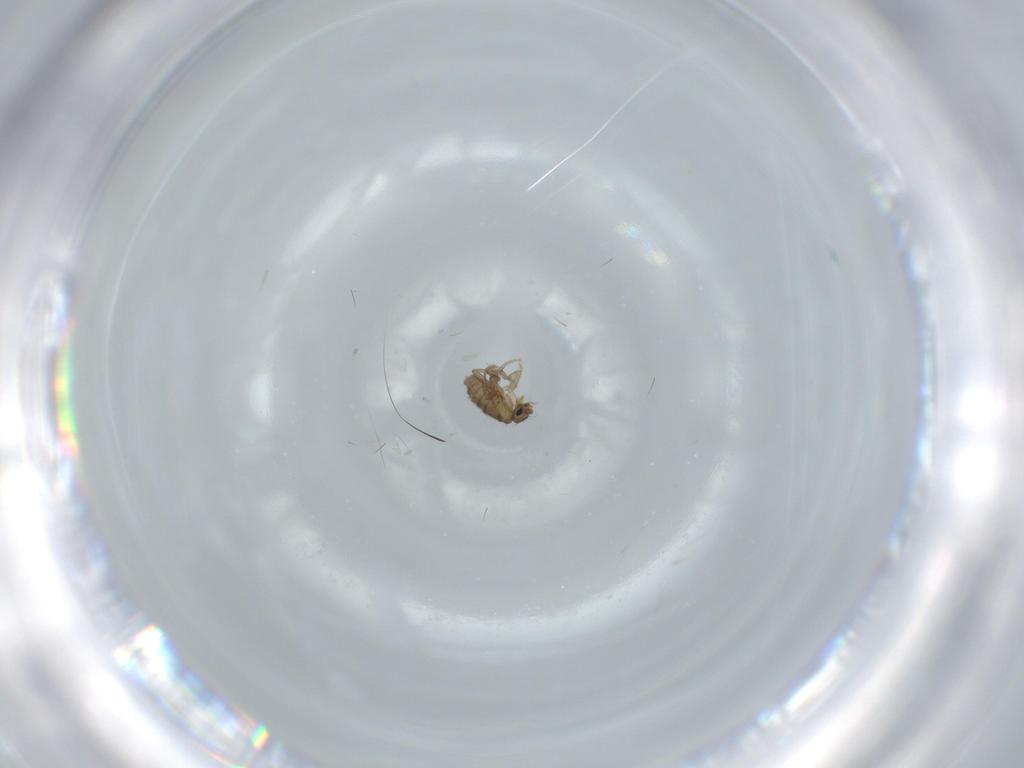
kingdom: Animalia
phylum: Arthropoda
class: Insecta
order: Diptera
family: Phoridae
